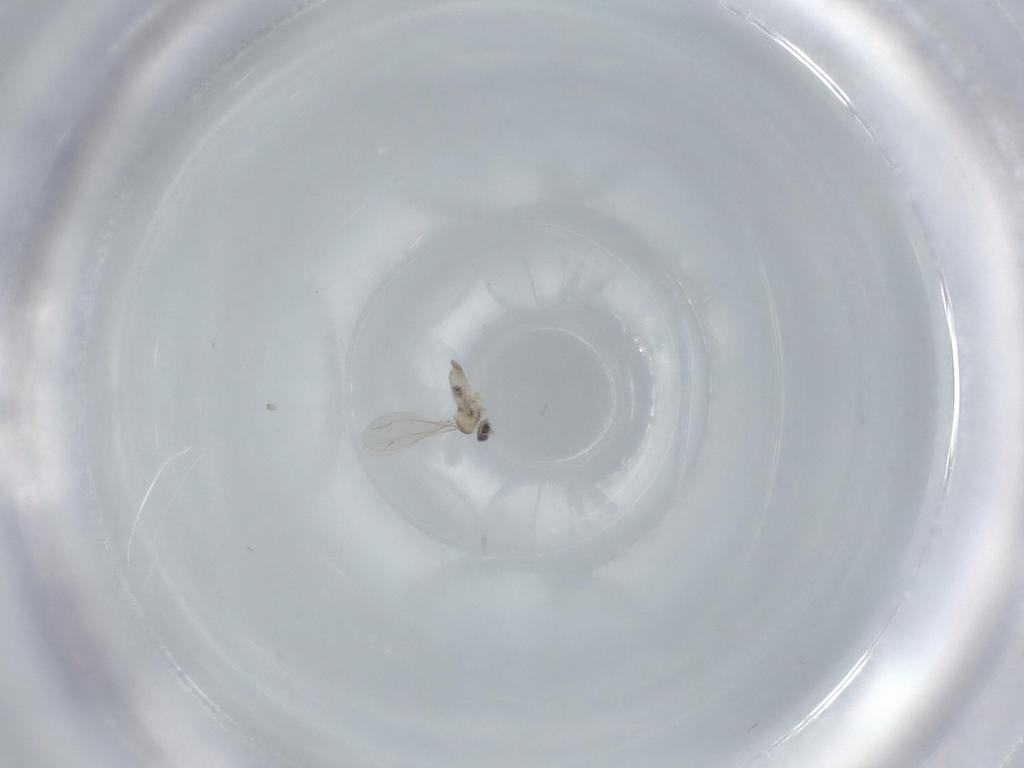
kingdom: Animalia
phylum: Arthropoda
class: Insecta
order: Diptera
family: Cecidomyiidae
